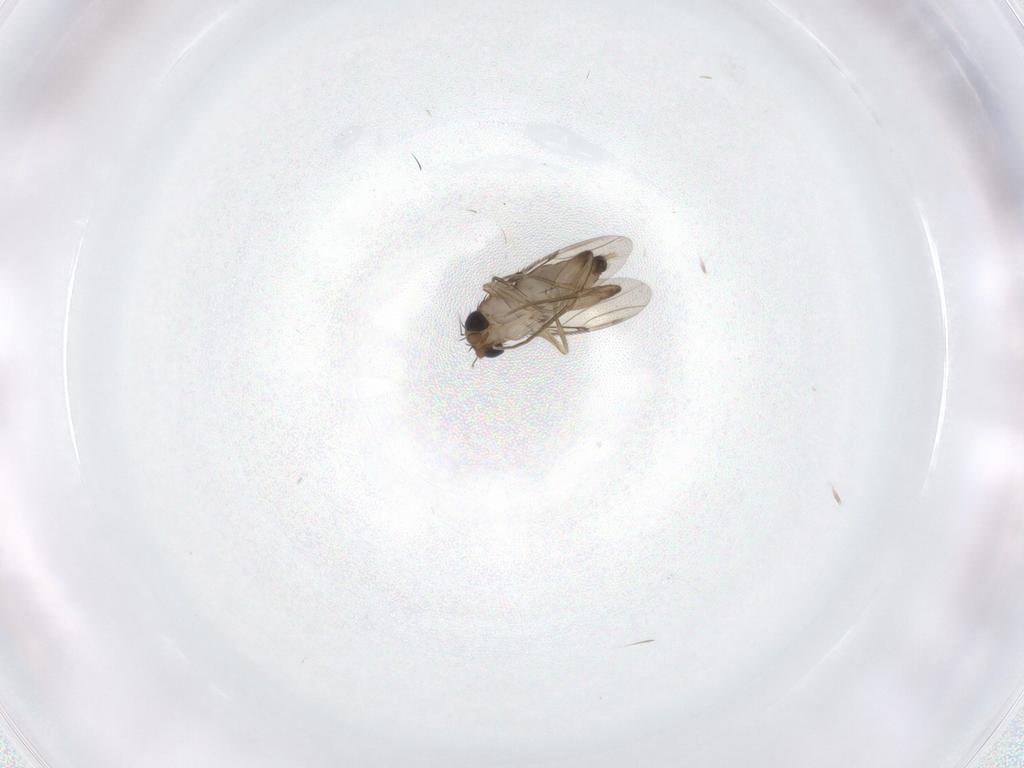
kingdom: Animalia
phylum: Arthropoda
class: Insecta
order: Diptera
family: Phoridae
